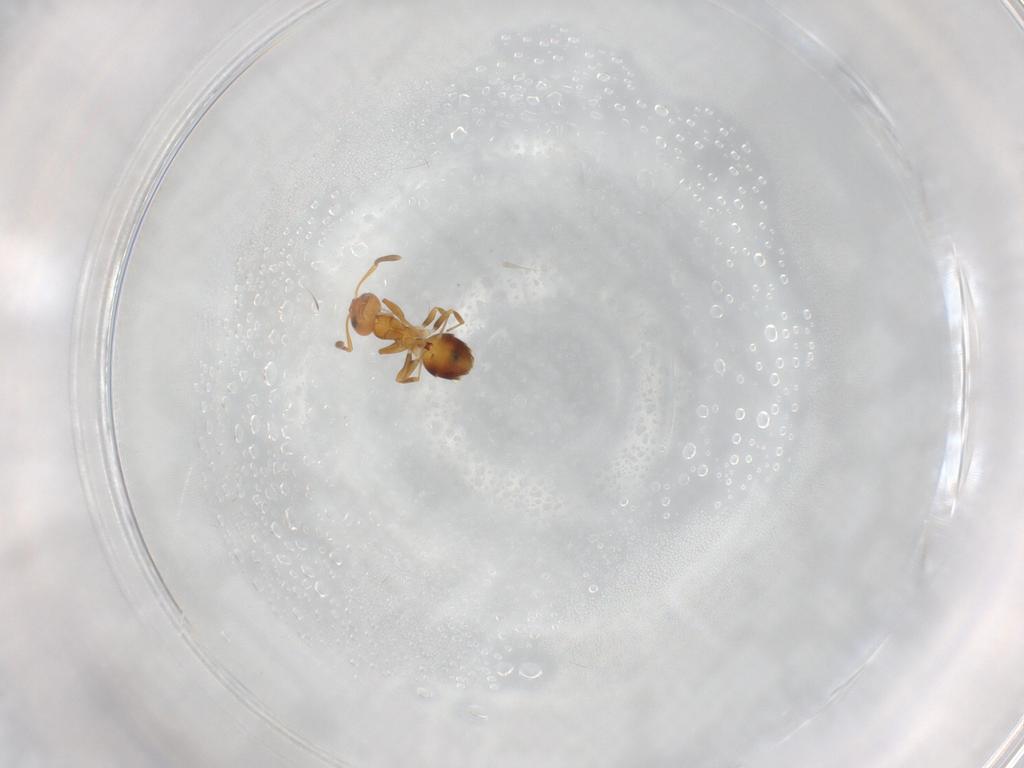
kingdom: Animalia
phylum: Arthropoda
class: Insecta
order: Hymenoptera
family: Formicidae
